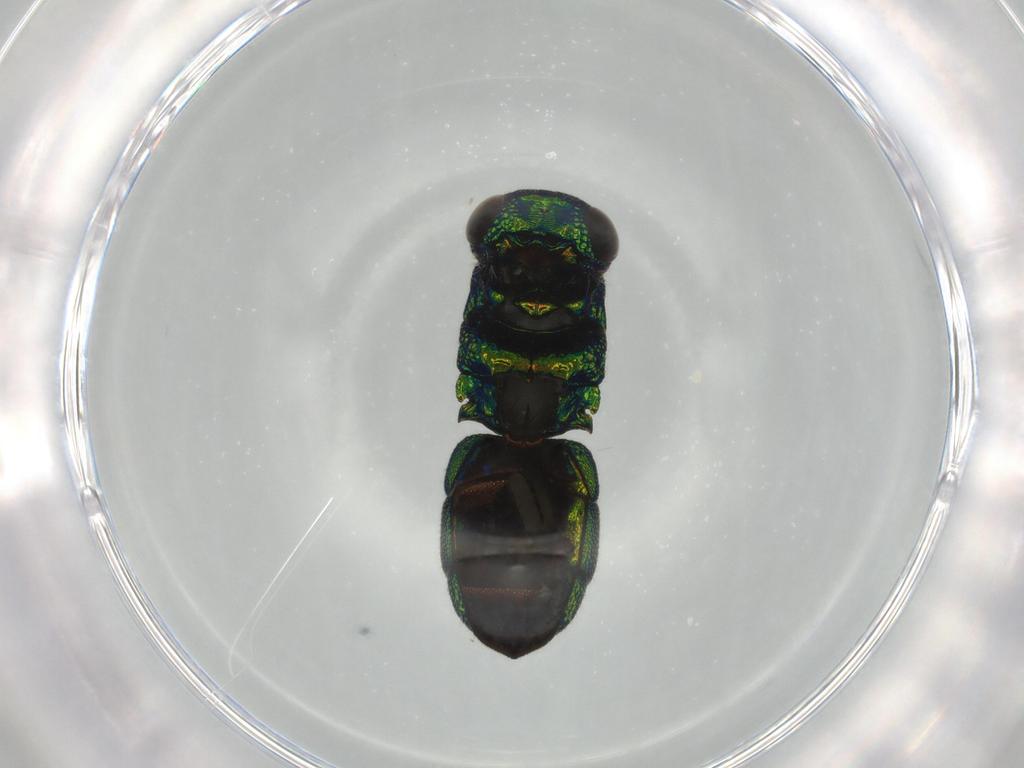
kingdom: Animalia
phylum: Arthropoda
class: Insecta
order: Hymenoptera
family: Chrysididae
